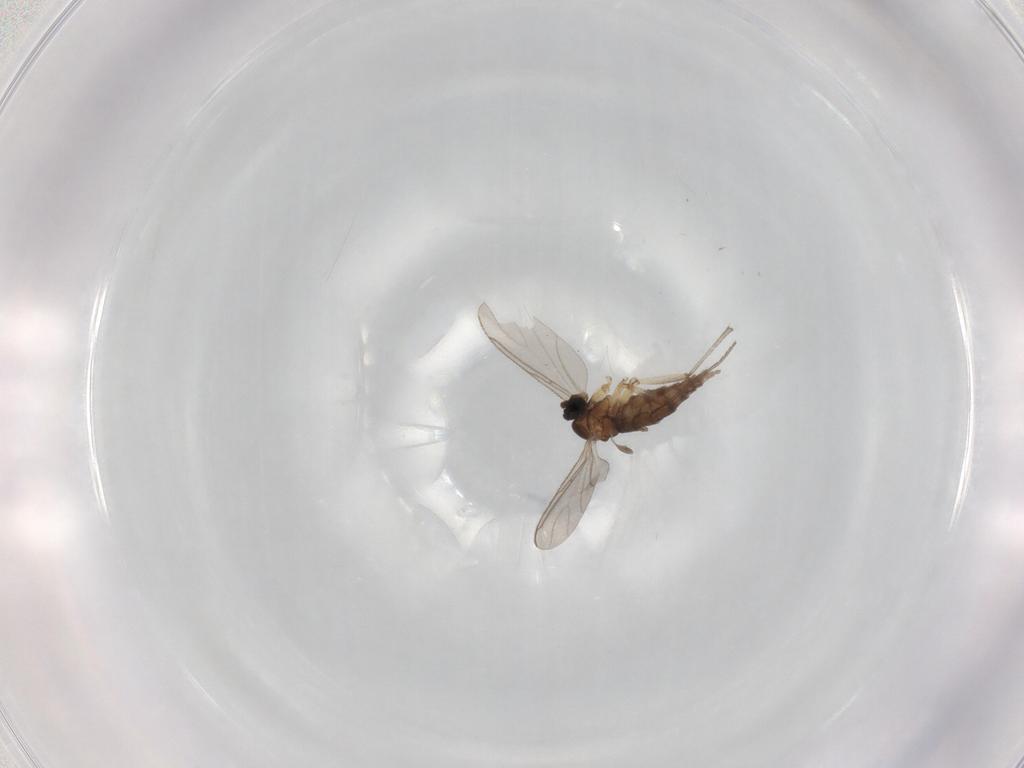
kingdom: Animalia
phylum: Arthropoda
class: Insecta
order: Diptera
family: Sciaridae
